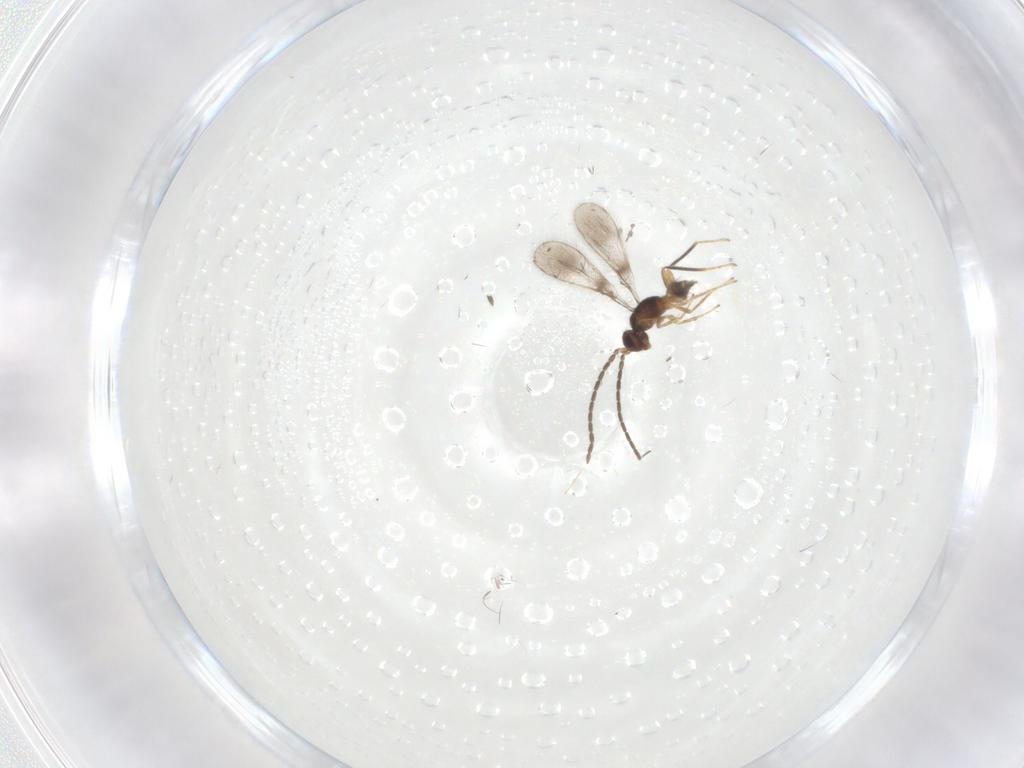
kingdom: Animalia
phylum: Arthropoda
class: Insecta
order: Hymenoptera
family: Mymaridae
